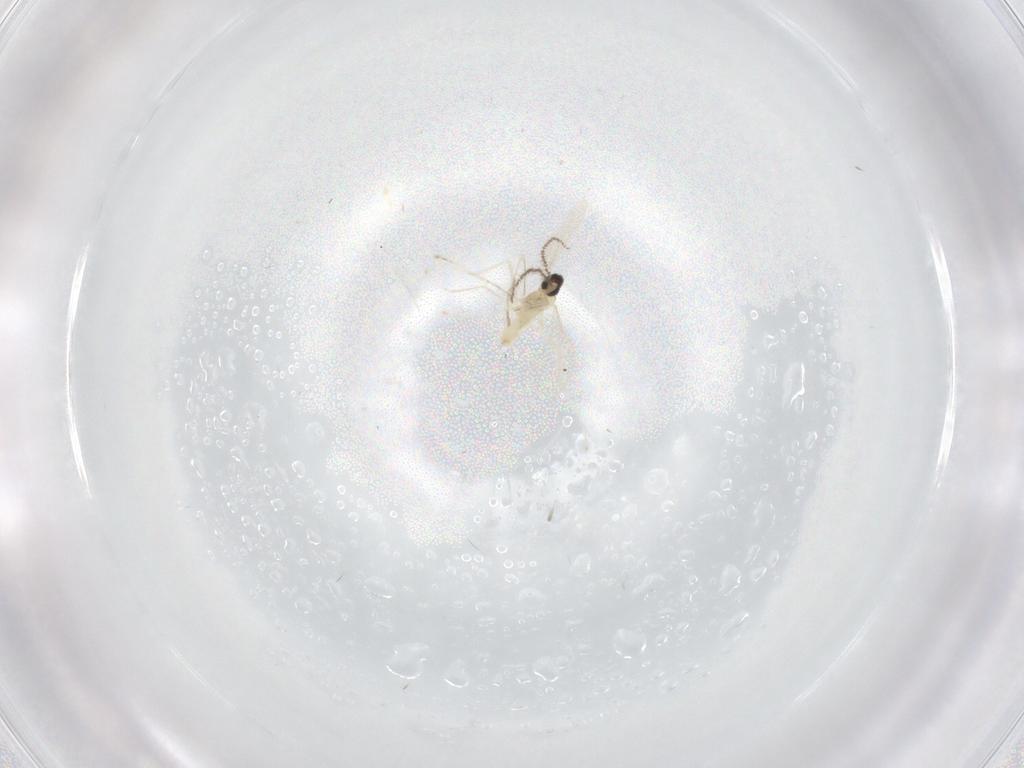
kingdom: Animalia
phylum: Arthropoda
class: Insecta
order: Diptera
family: Cecidomyiidae
